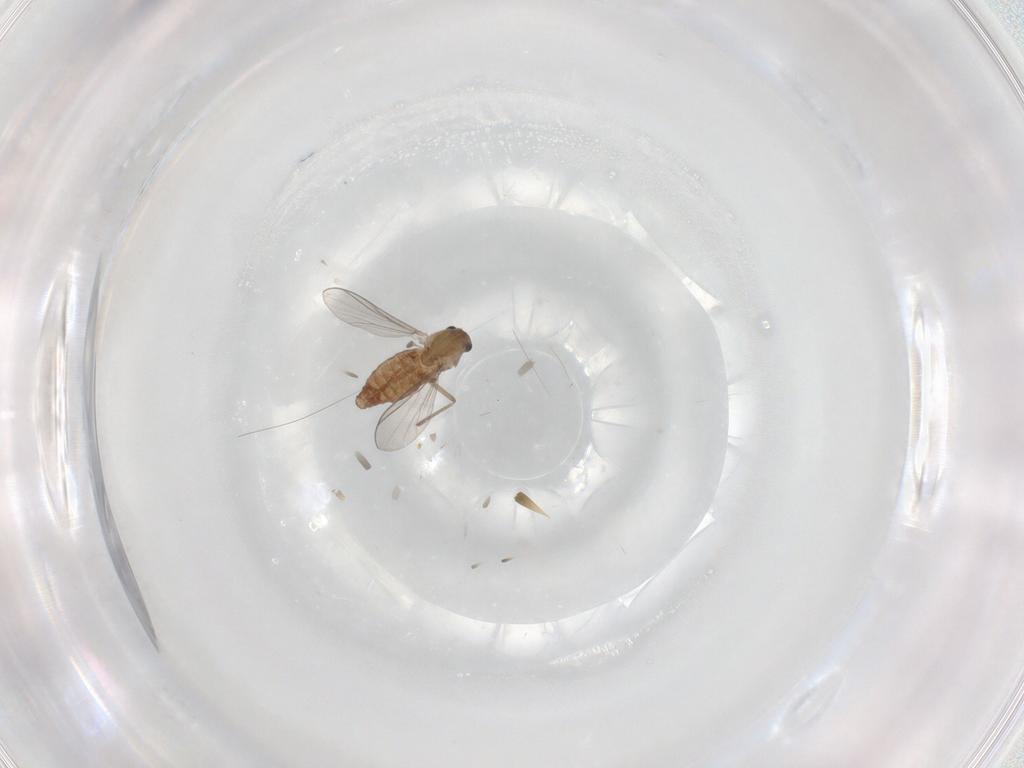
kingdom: Animalia
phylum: Arthropoda
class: Insecta
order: Diptera
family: Chironomidae
